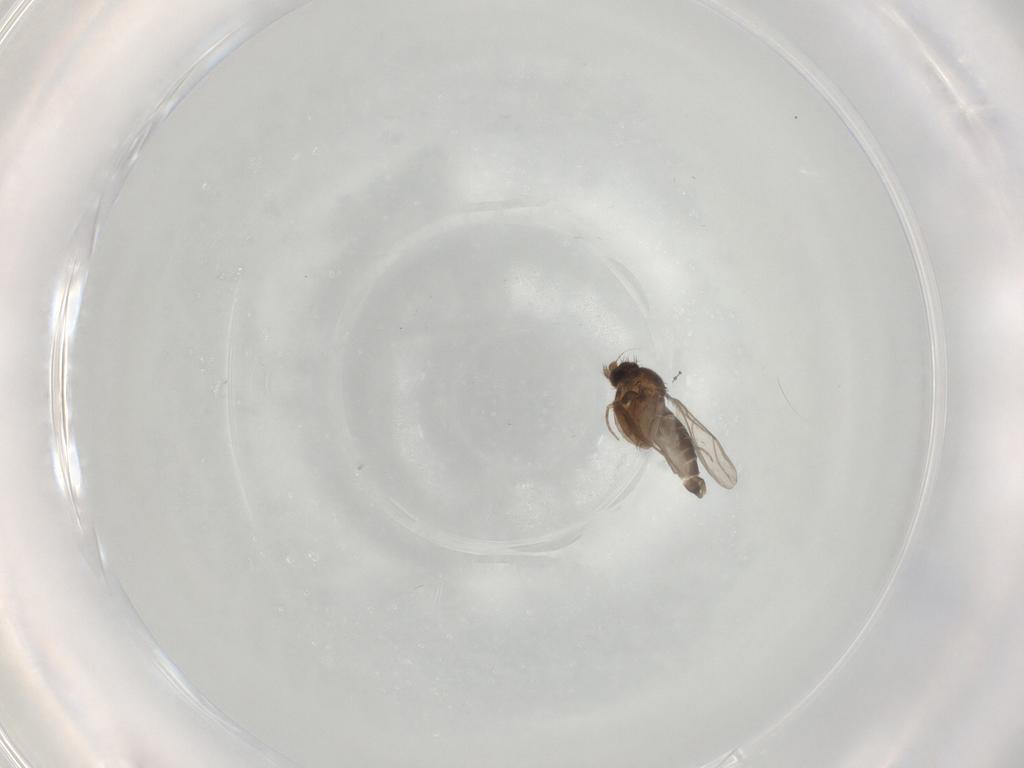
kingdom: Animalia
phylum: Arthropoda
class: Insecta
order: Diptera
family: Phoridae
